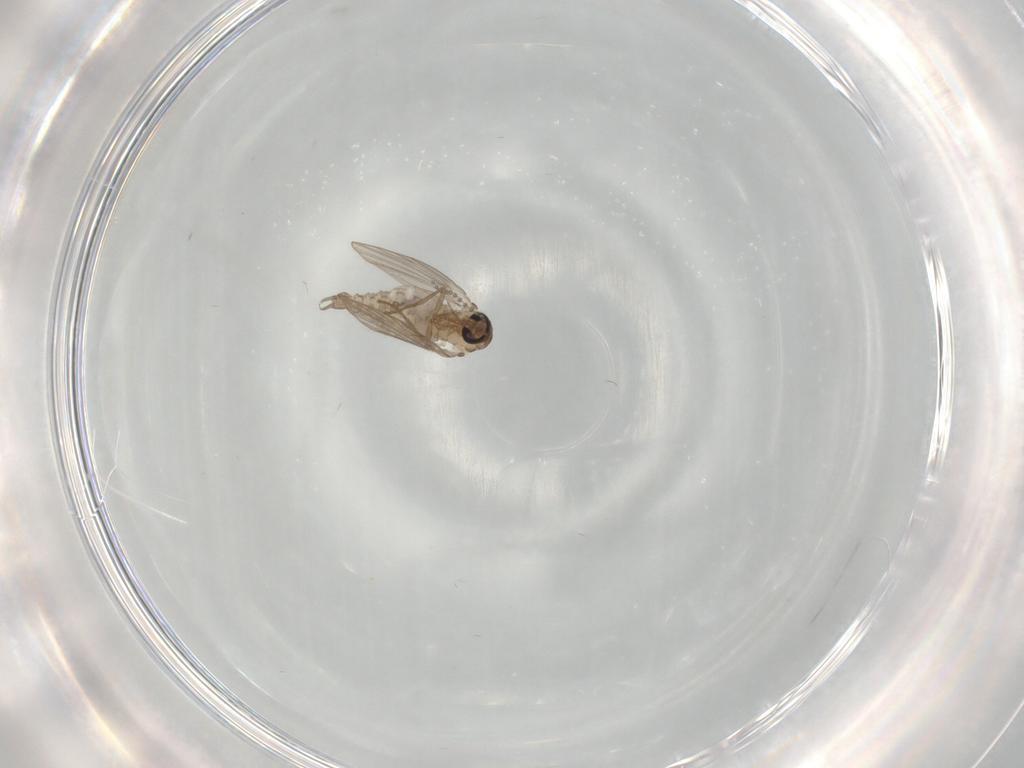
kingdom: Animalia
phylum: Arthropoda
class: Insecta
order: Diptera
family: Psychodidae
